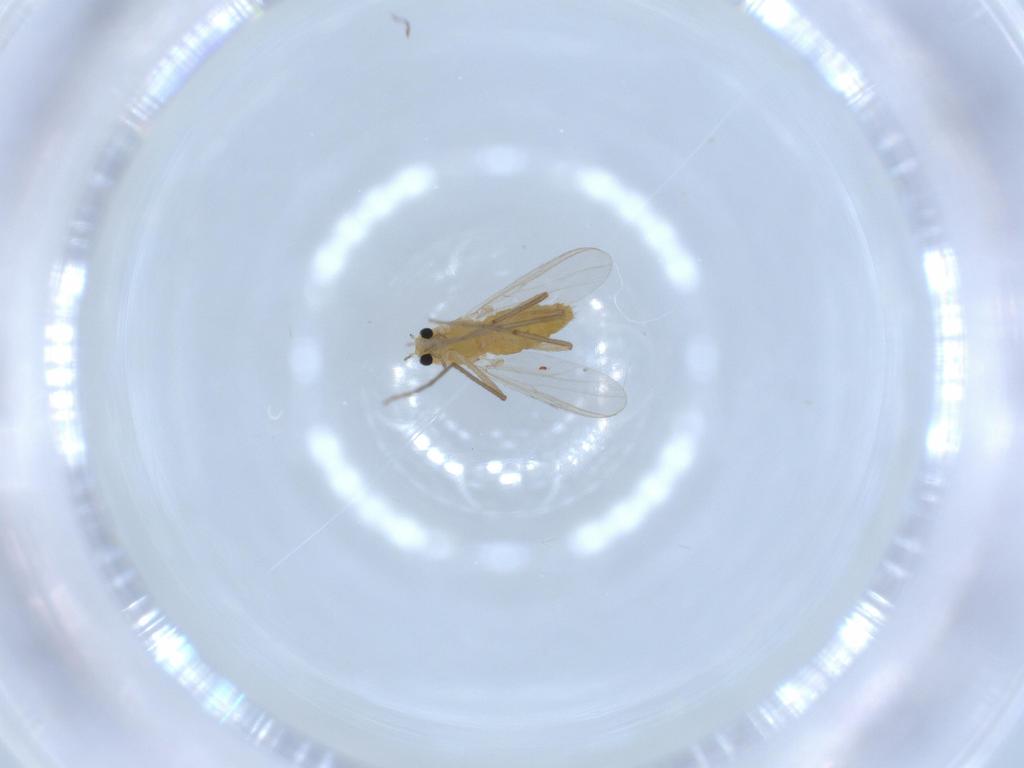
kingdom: Animalia
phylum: Arthropoda
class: Insecta
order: Diptera
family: Chironomidae
